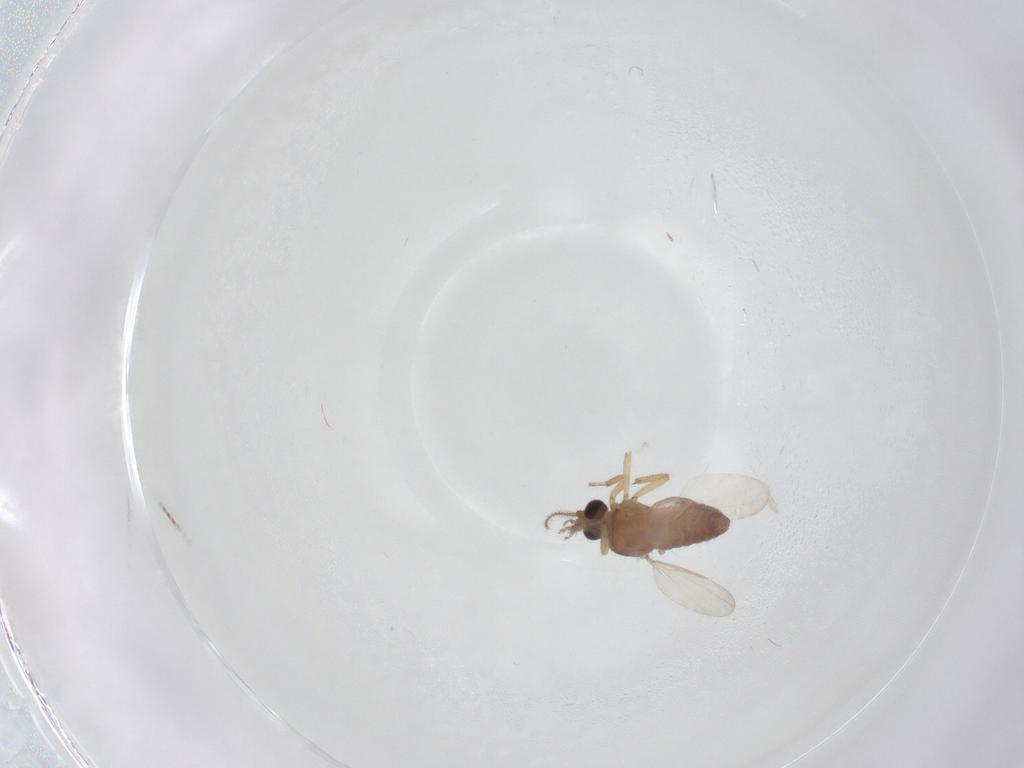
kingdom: Animalia
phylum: Arthropoda
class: Insecta
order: Diptera
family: Ceratopogonidae
